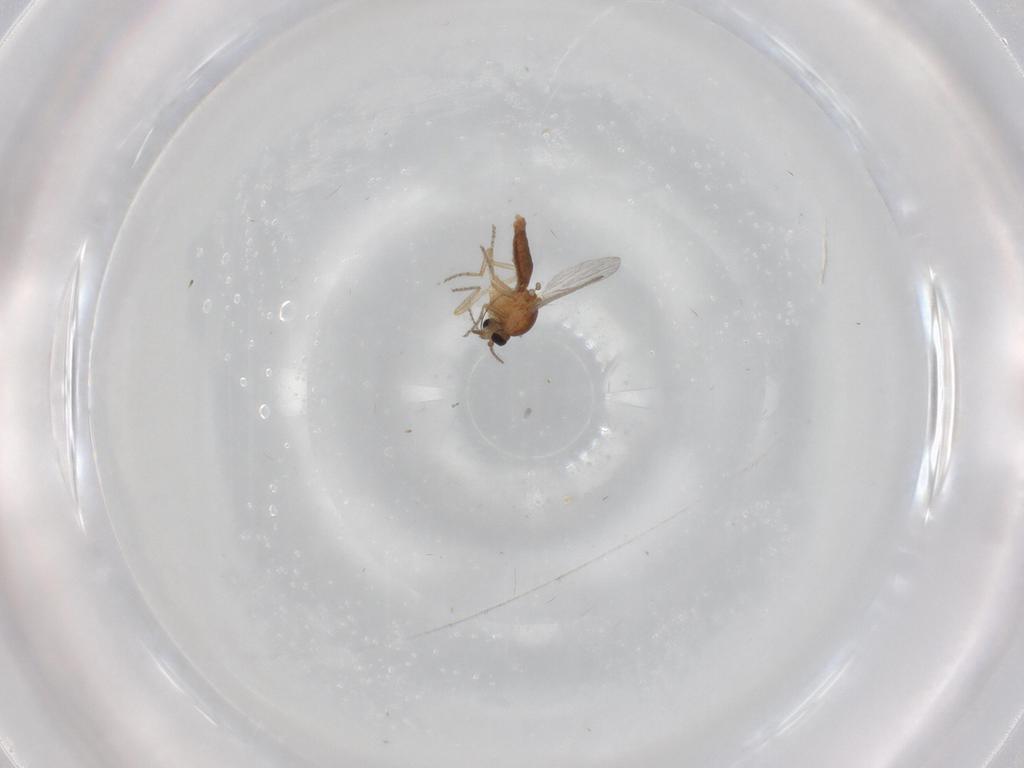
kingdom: Animalia
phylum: Arthropoda
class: Insecta
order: Diptera
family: Ceratopogonidae
